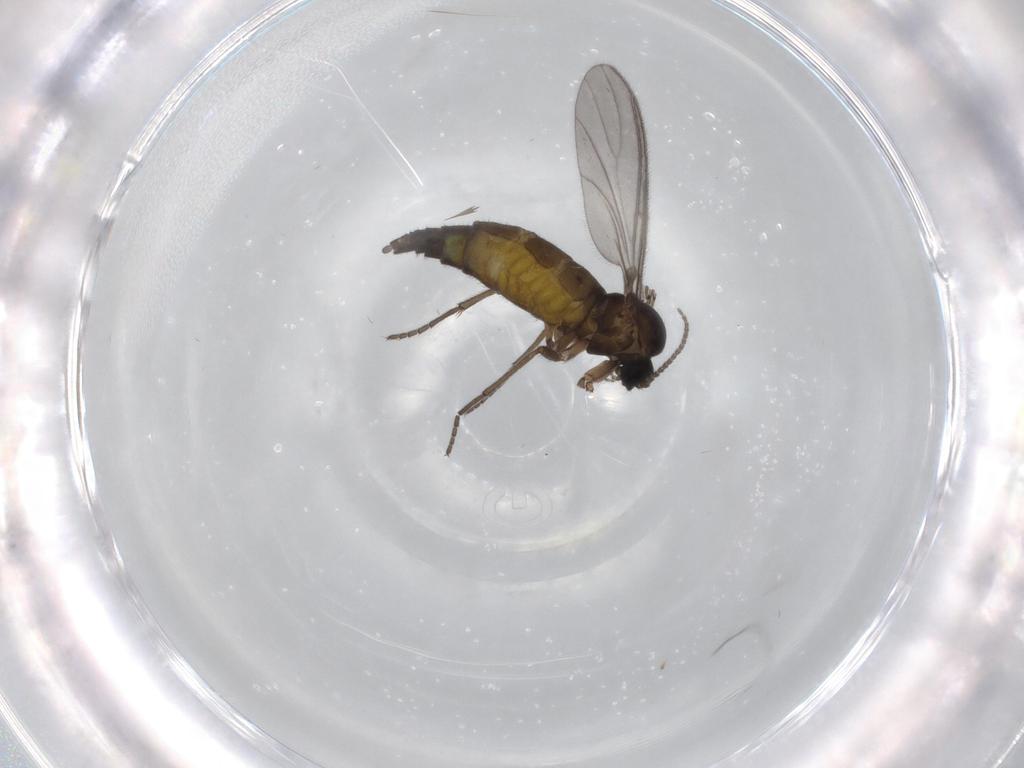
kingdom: Animalia
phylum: Arthropoda
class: Insecta
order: Diptera
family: Sciaridae
